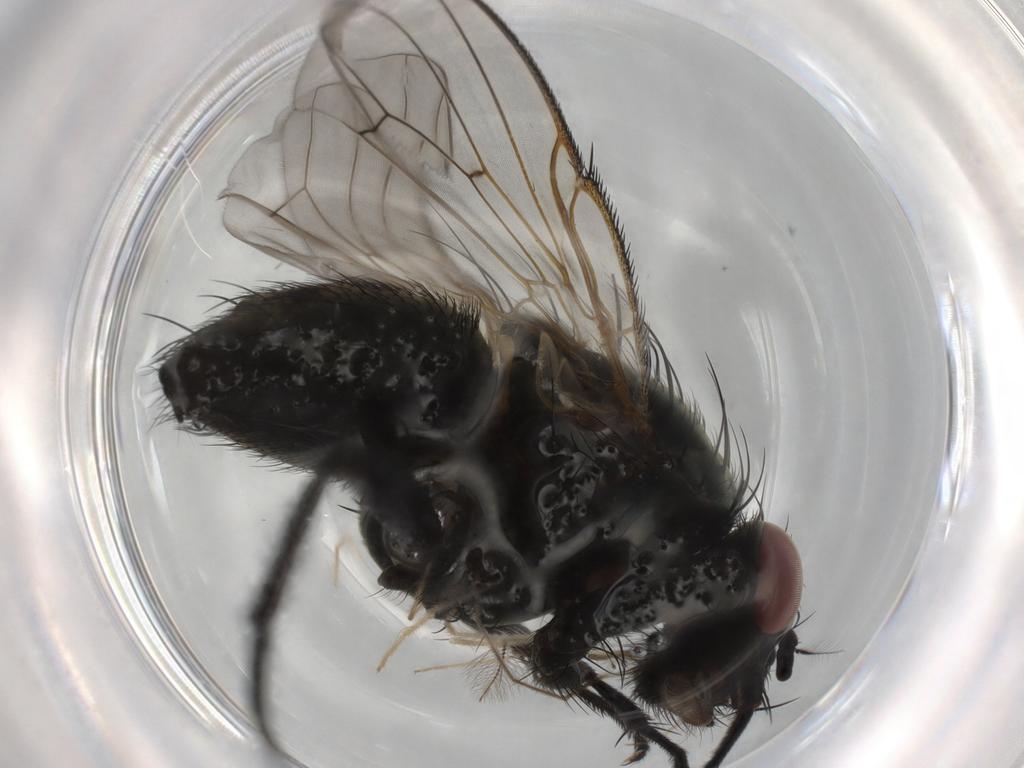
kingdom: Animalia
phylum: Arthropoda
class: Insecta
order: Diptera
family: Muscidae
